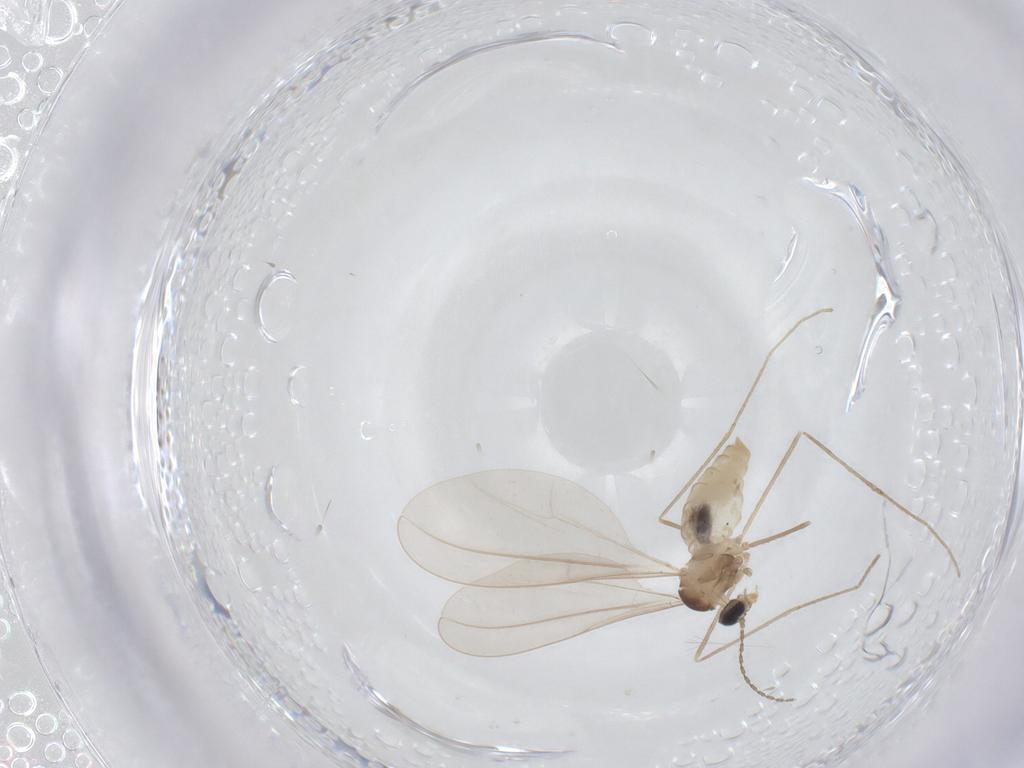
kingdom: Animalia
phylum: Arthropoda
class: Insecta
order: Diptera
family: Cecidomyiidae
